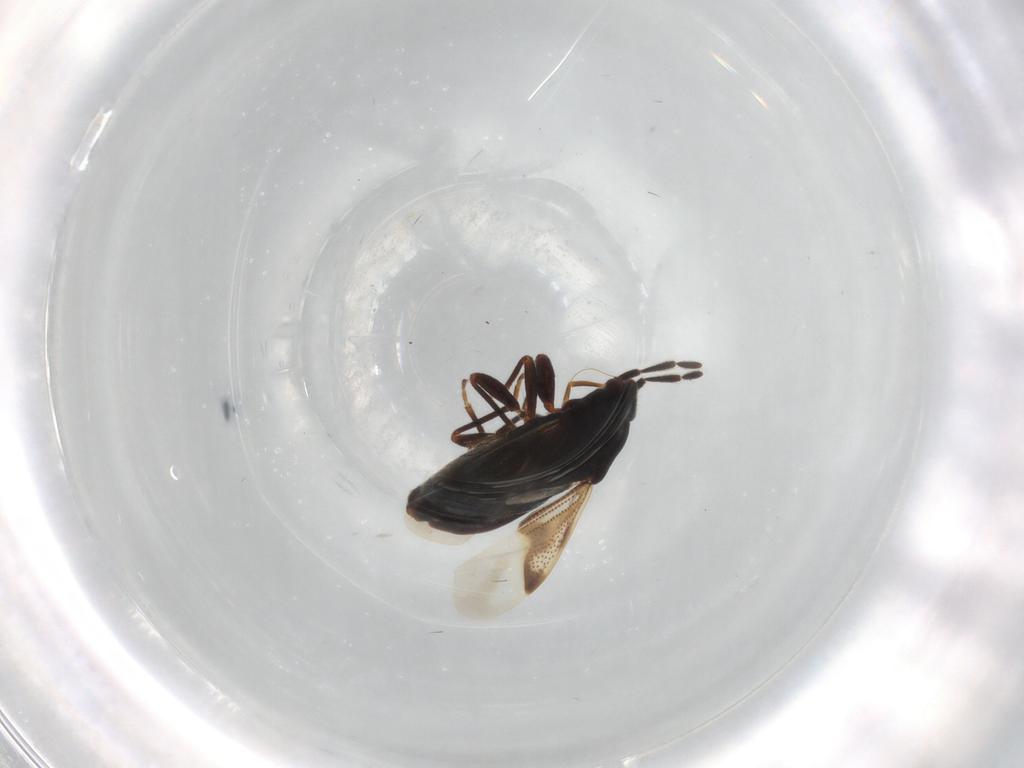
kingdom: Animalia
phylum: Arthropoda
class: Insecta
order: Hemiptera
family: Rhyparochromidae
